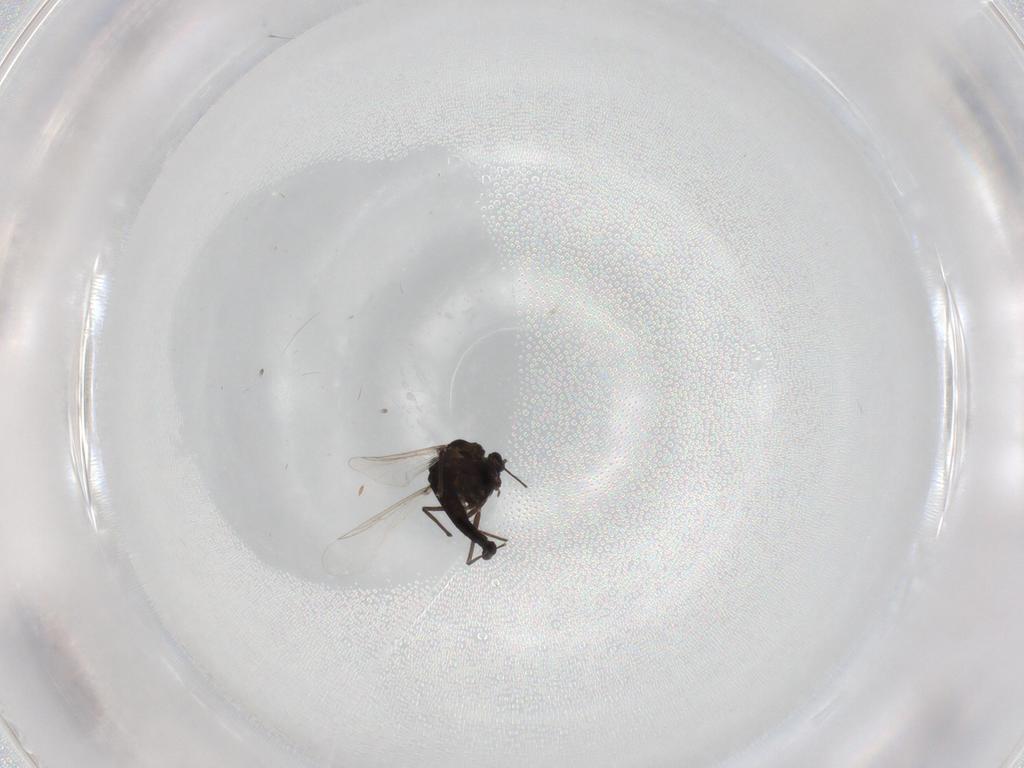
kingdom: Animalia
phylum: Arthropoda
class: Insecta
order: Diptera
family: Chironomidae
